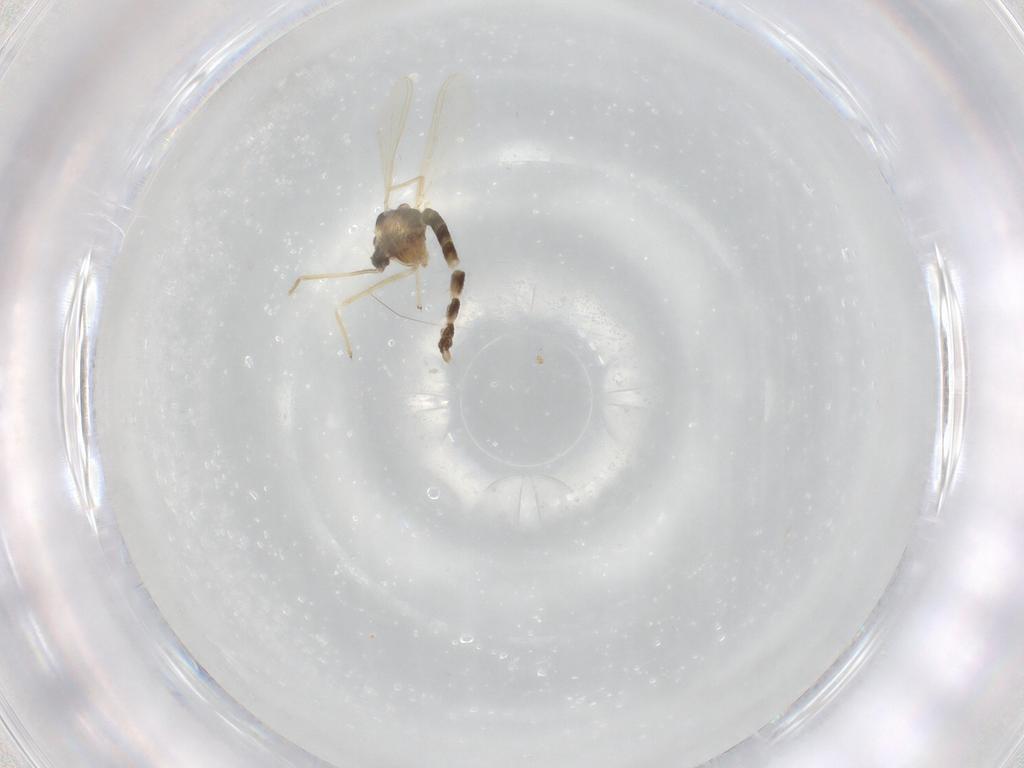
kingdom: Animalia
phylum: Arthropoda
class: Insecta
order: Diptera
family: Chironomidae
